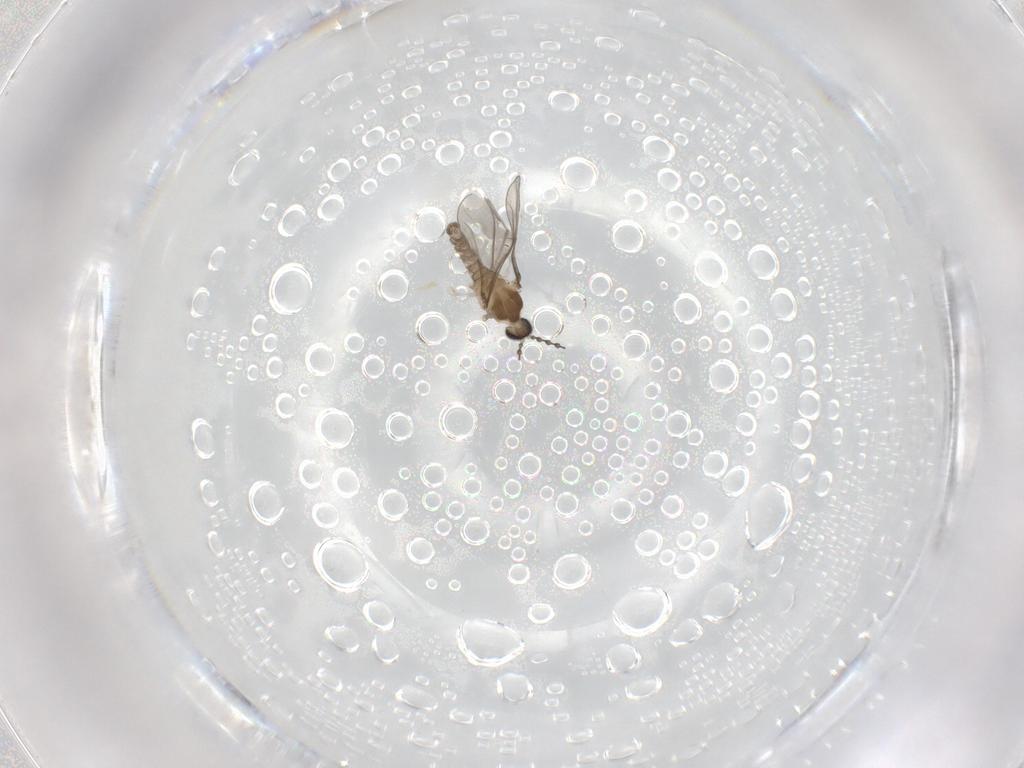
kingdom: Animalia
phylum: Arthropoda
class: Insecta
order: Diptera
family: Cecidomyiidae
